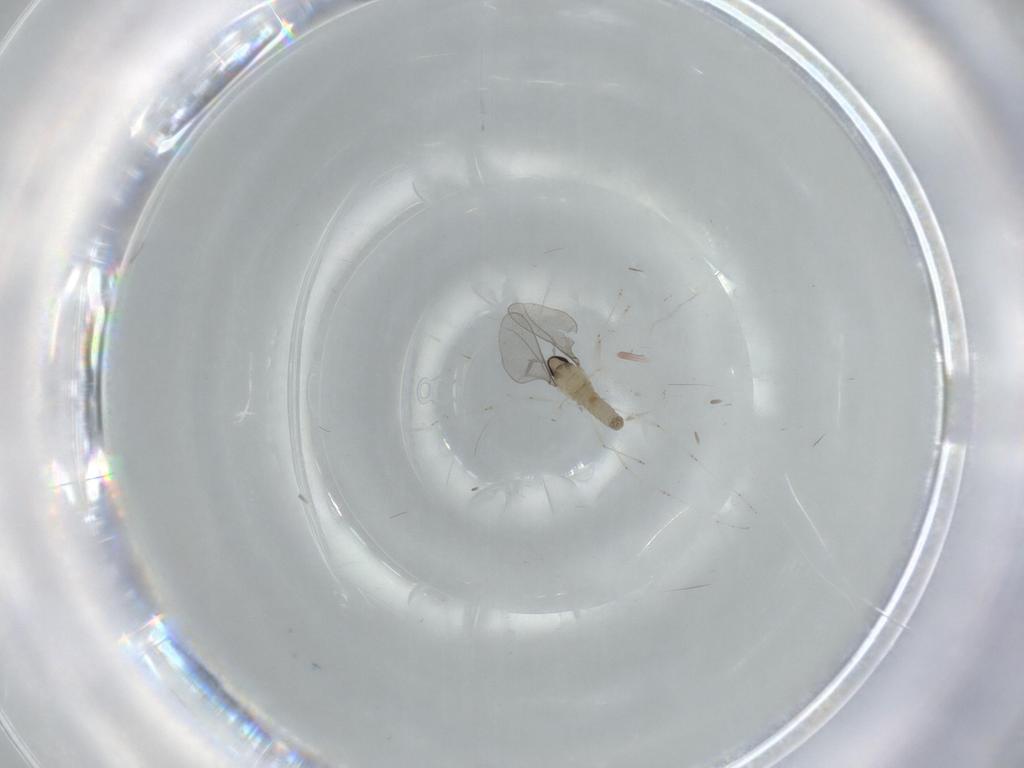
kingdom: Animalia
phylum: Arthropoda
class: Insecta
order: Diptera
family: Cecidomyiidae
